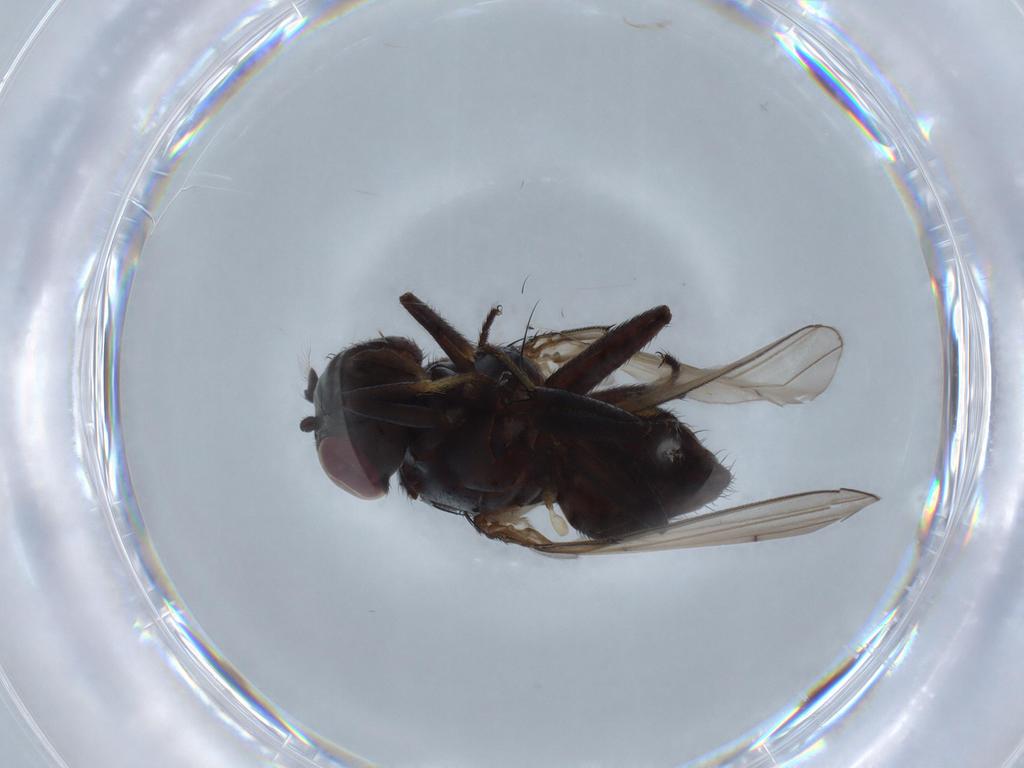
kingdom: Animalia
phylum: Arthropoda
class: Insecta
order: Diptera
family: Ephydridae
